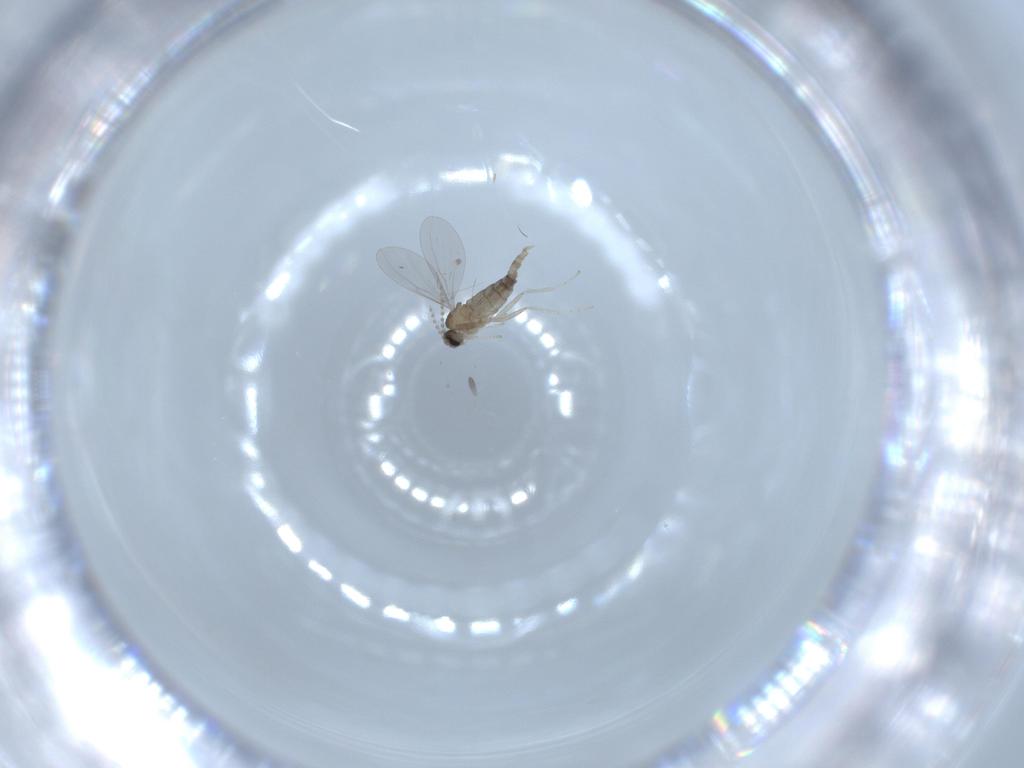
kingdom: Animalia
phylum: Arthropoda
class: Insecta
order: Diptera
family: Cecidomyiidae
